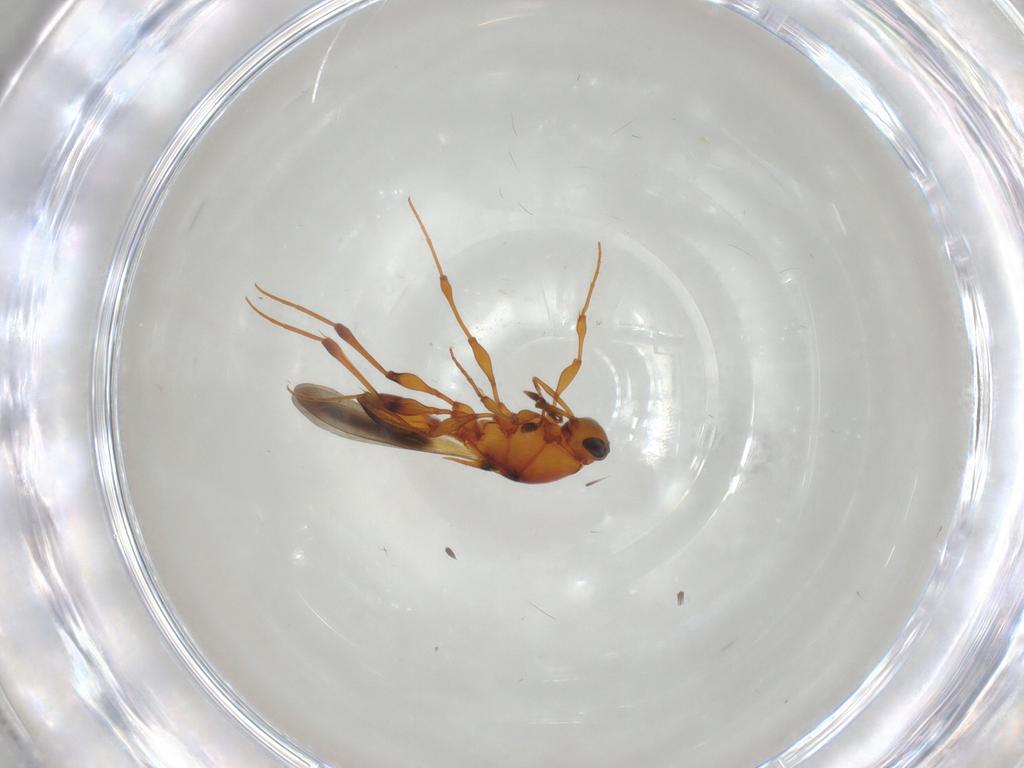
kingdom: Animalia
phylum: Arthropoda
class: Insecta
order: Hymenoptera
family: Platygastridae
